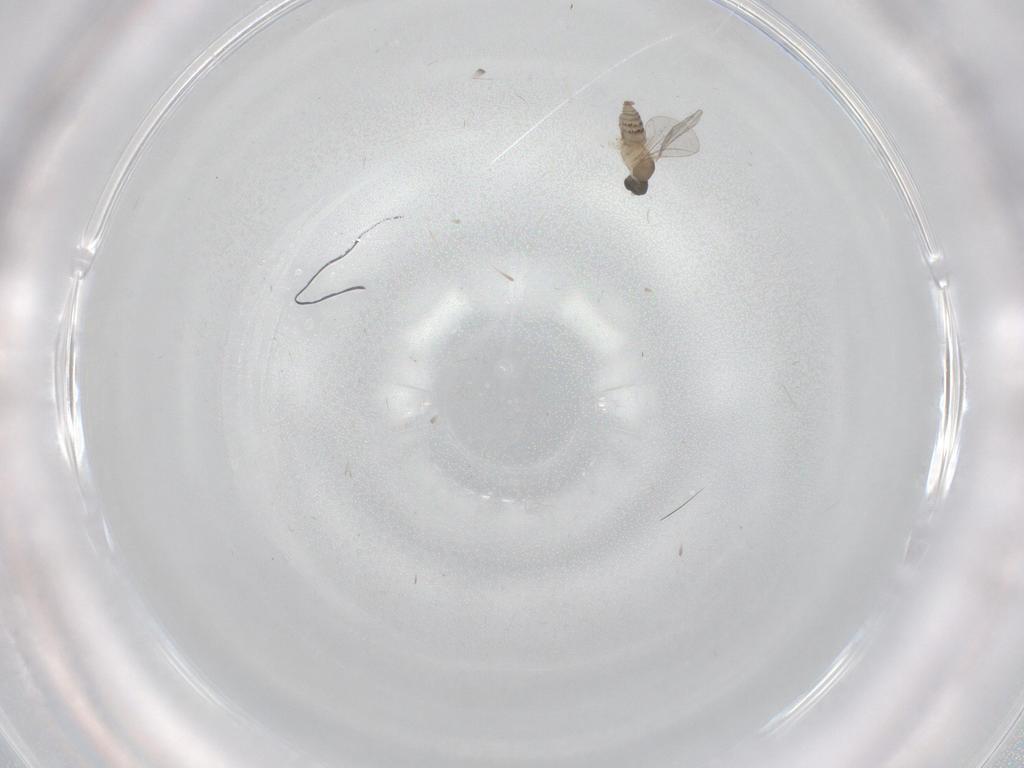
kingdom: Animalia
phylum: Arthropoda
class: Insecta
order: Diptera
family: Cecidomyiidae
